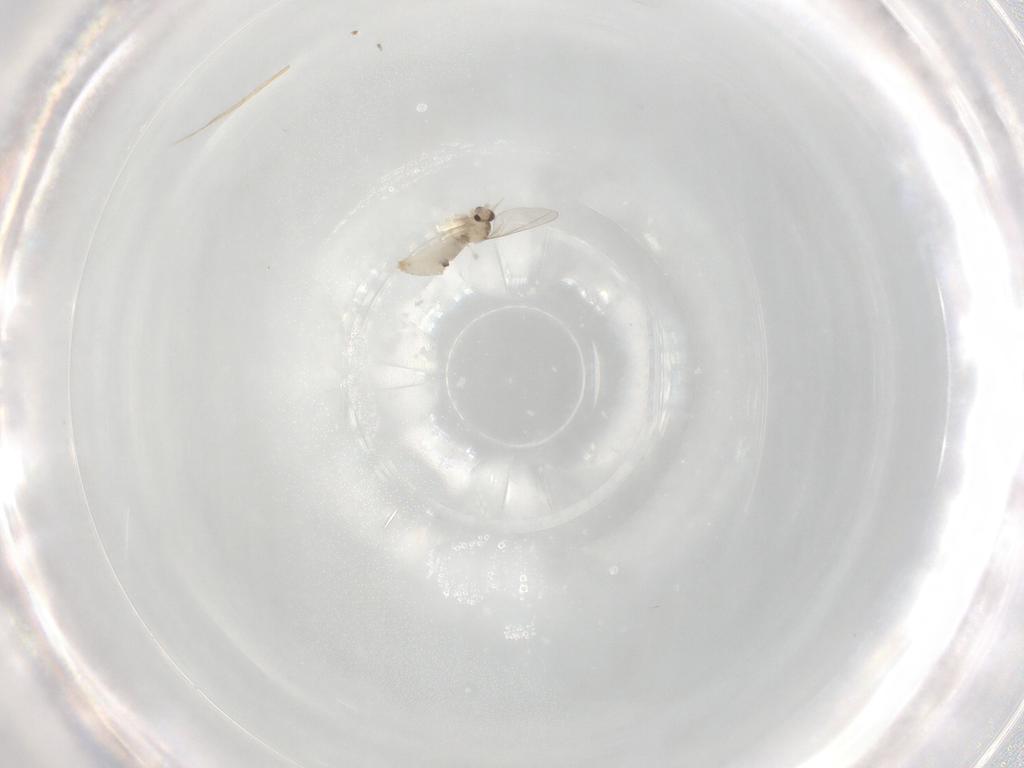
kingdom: Animalia
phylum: Arthropoda
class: Insecta
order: Diptera
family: Cecidomyiidae
